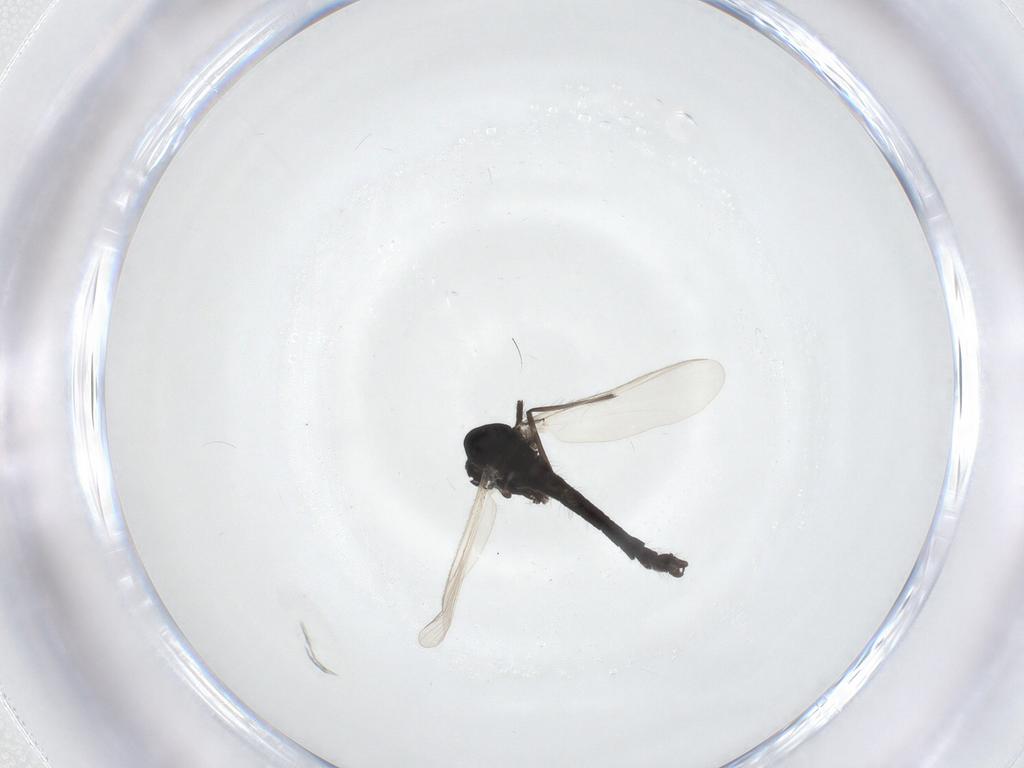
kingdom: Animalia
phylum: Arthropoda
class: Insecta
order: Diptera
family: Chironomidae
